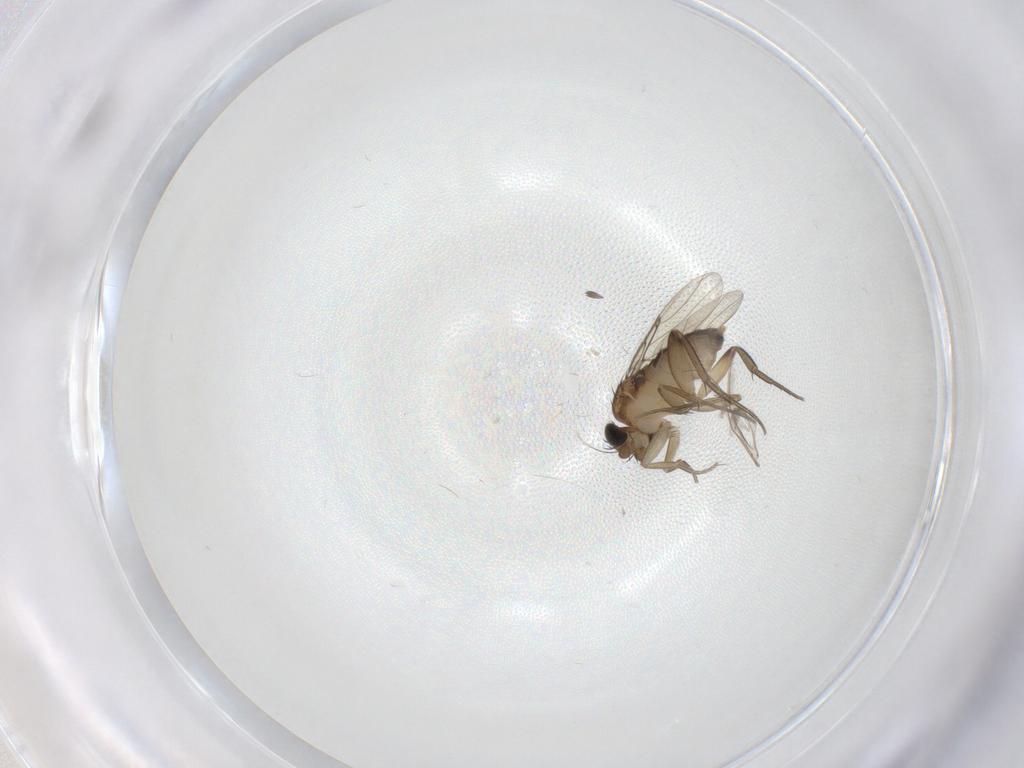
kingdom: Animalia
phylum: Arthropoda
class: Insecta
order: Diptera
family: Phoridae
